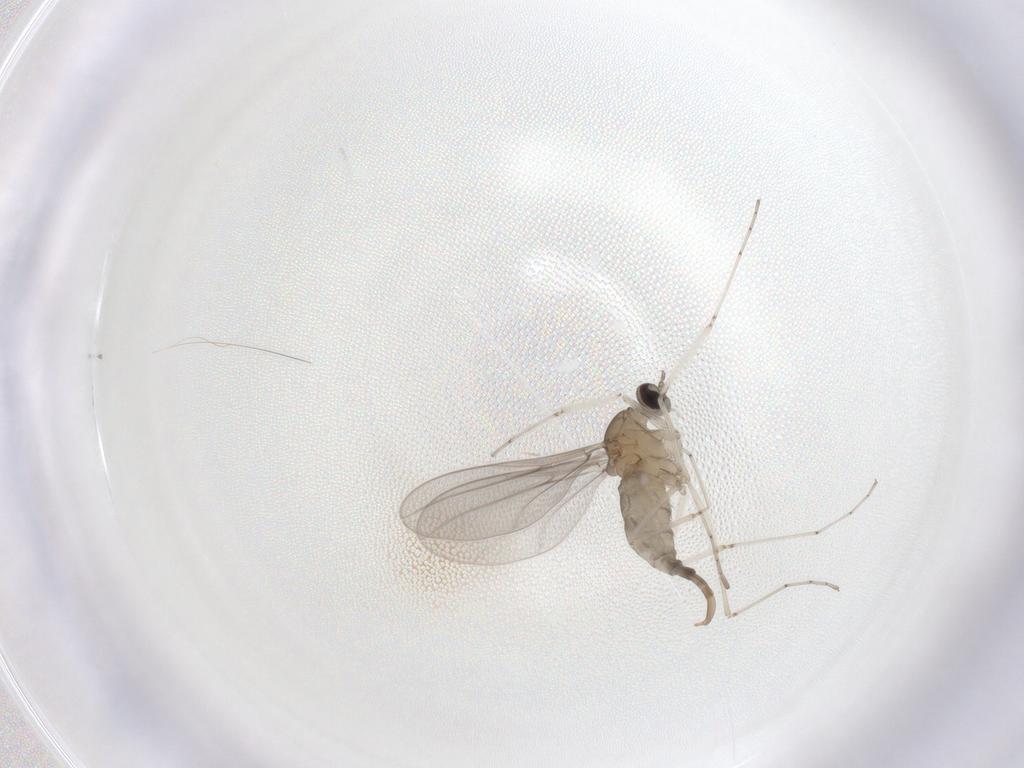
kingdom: Animalia
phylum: Arthropoda
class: Insecta
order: Diptera
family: Cecidomyiidae
